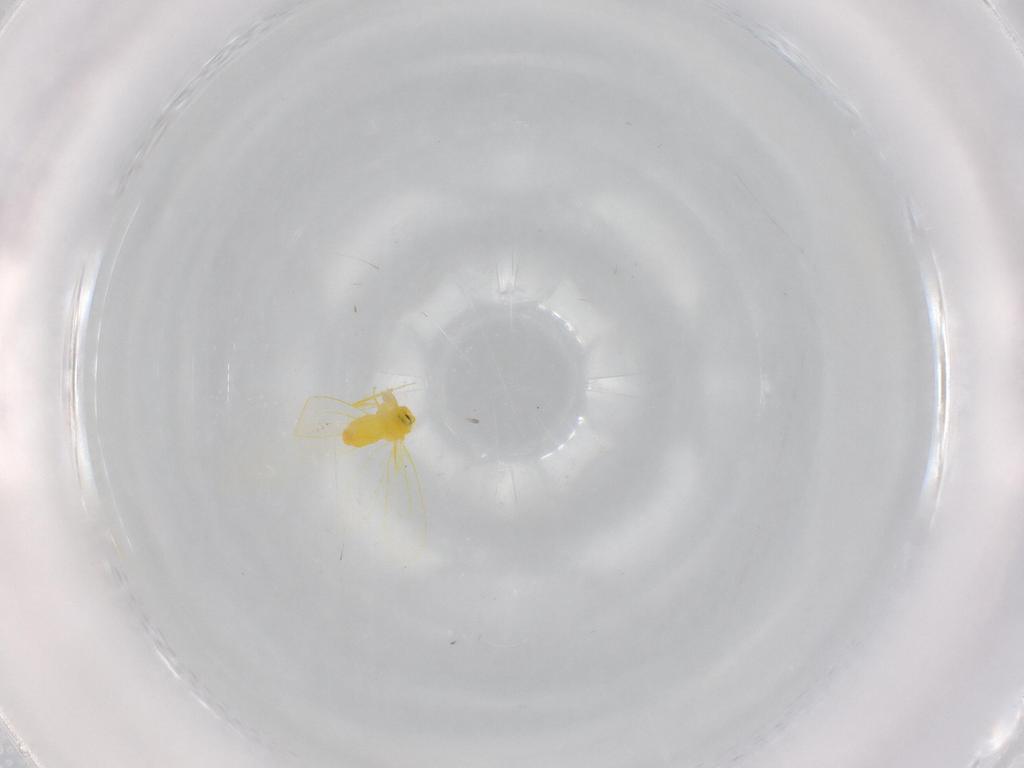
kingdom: Animalia
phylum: Arthropoda
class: Insecta
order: Hemiptera
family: Aleyrodidae
